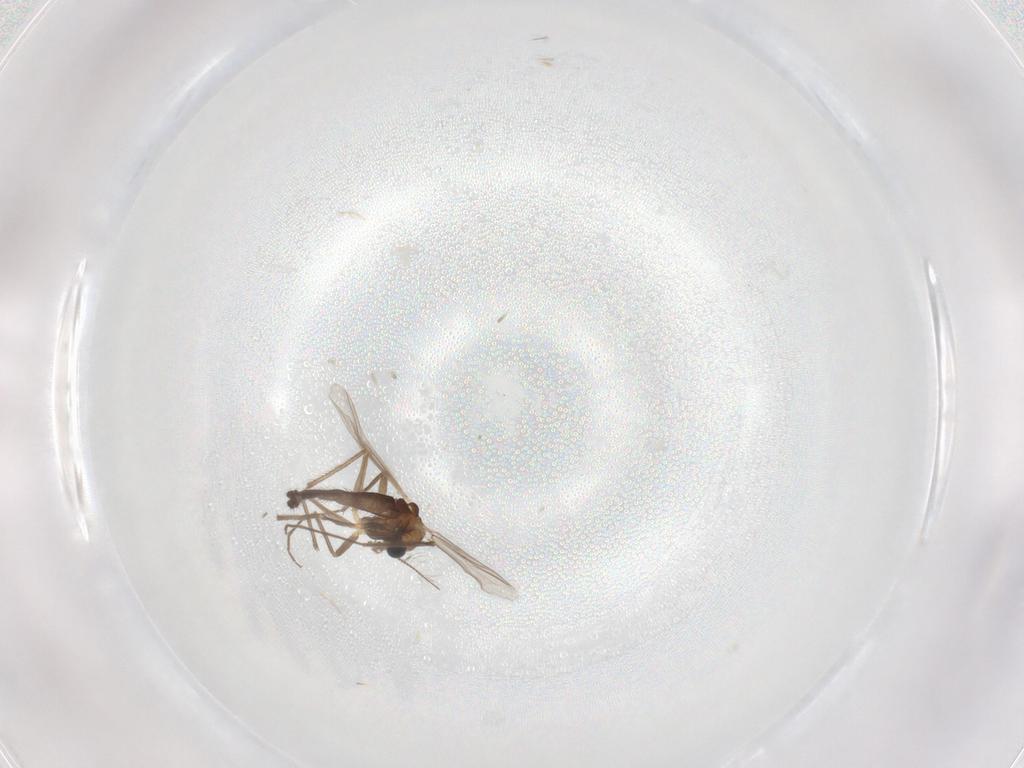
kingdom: Animalia
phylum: Arthropoda
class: Insecta
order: Diptera
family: Chironomidae
